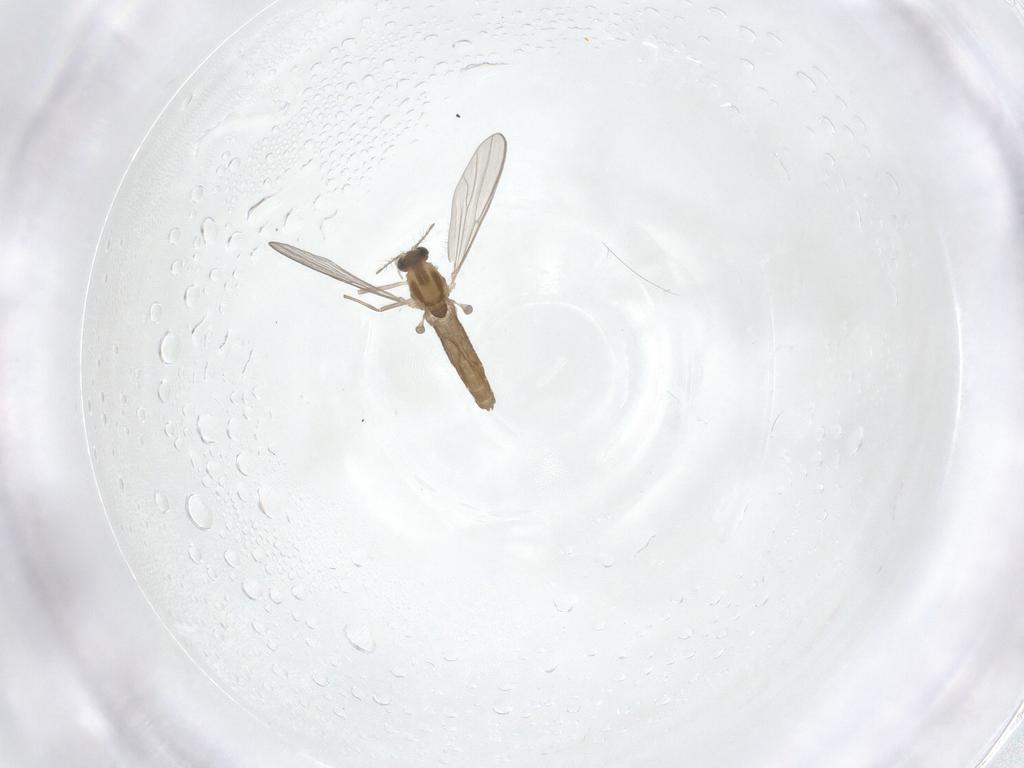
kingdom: Animalia
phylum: Arthropoda
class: Insecta
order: Diptera
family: Chironomidae
